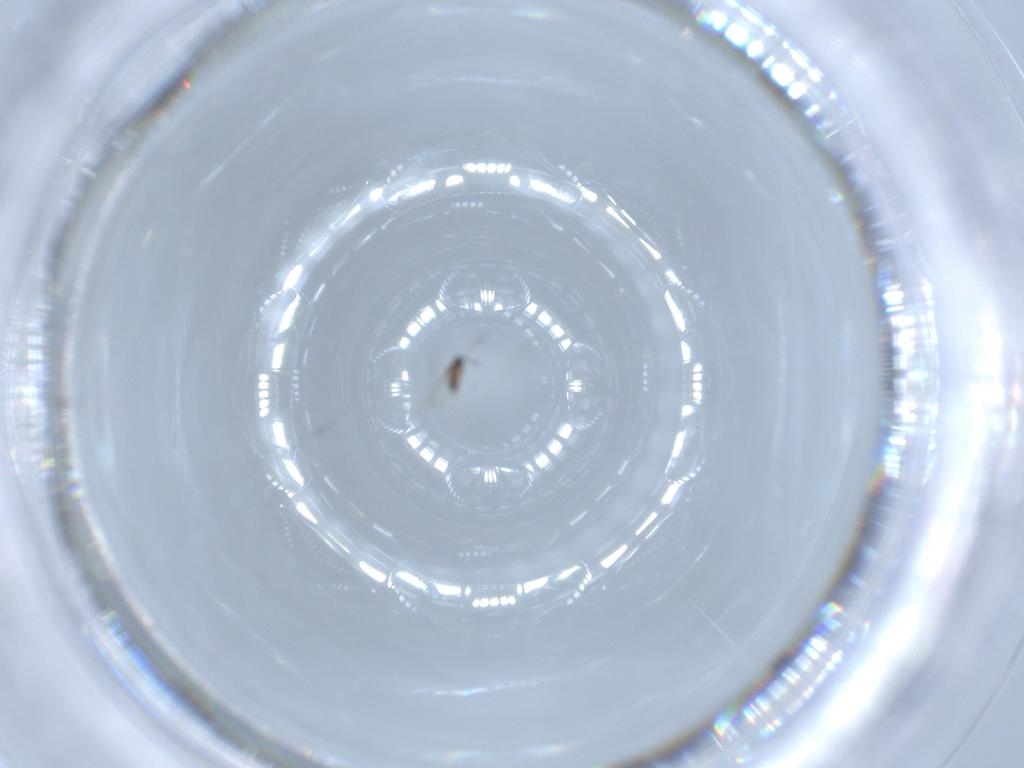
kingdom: Animalia
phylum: Arthropoda
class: Insecta
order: Hymenoptera
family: Mymaridae
